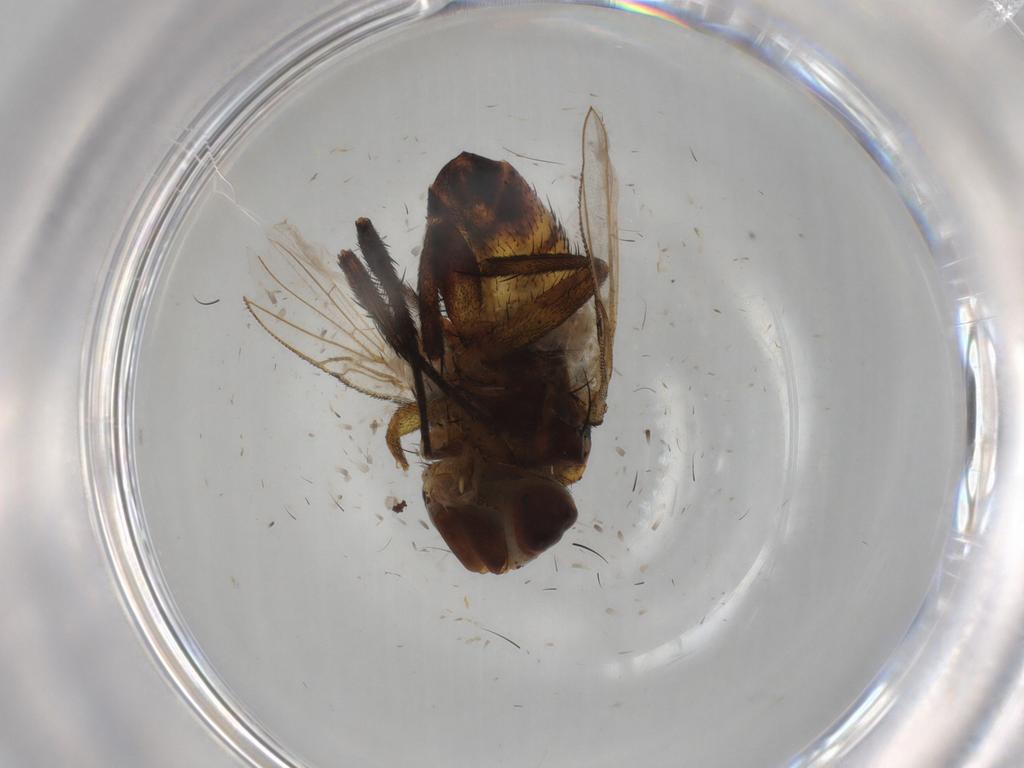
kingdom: Animalia
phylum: Arthropoda
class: Insecta
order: Diptera
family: Glossinidae
